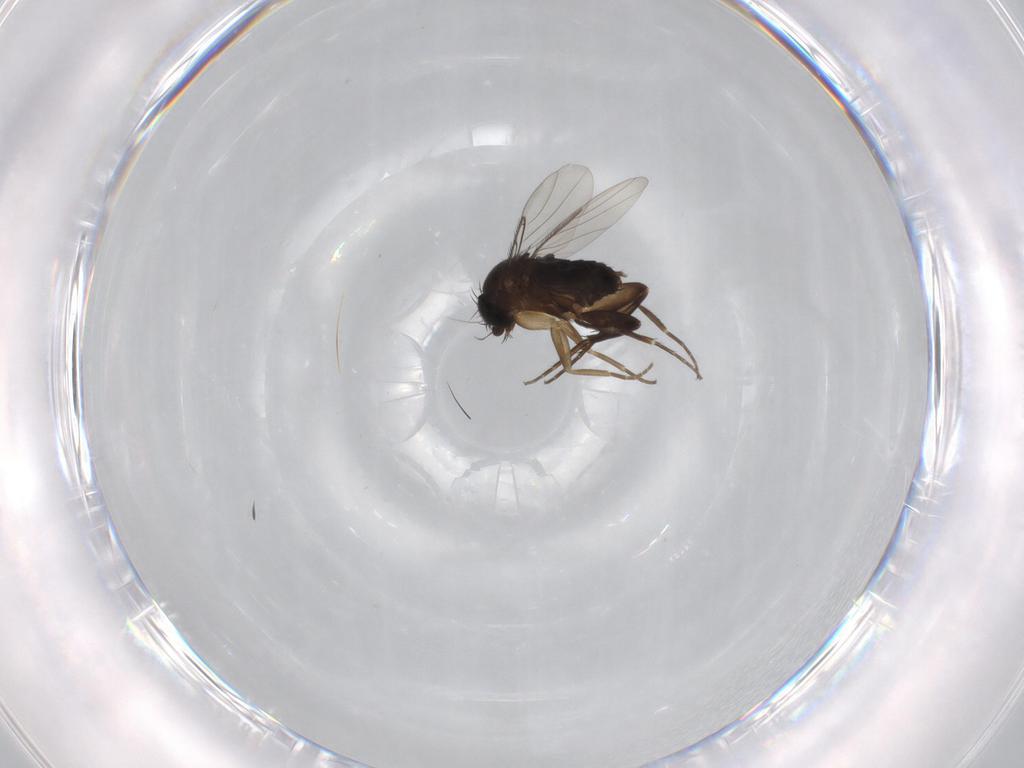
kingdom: Animalia
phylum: Arthropoda
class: Insecta
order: Diptera
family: Phoridae
